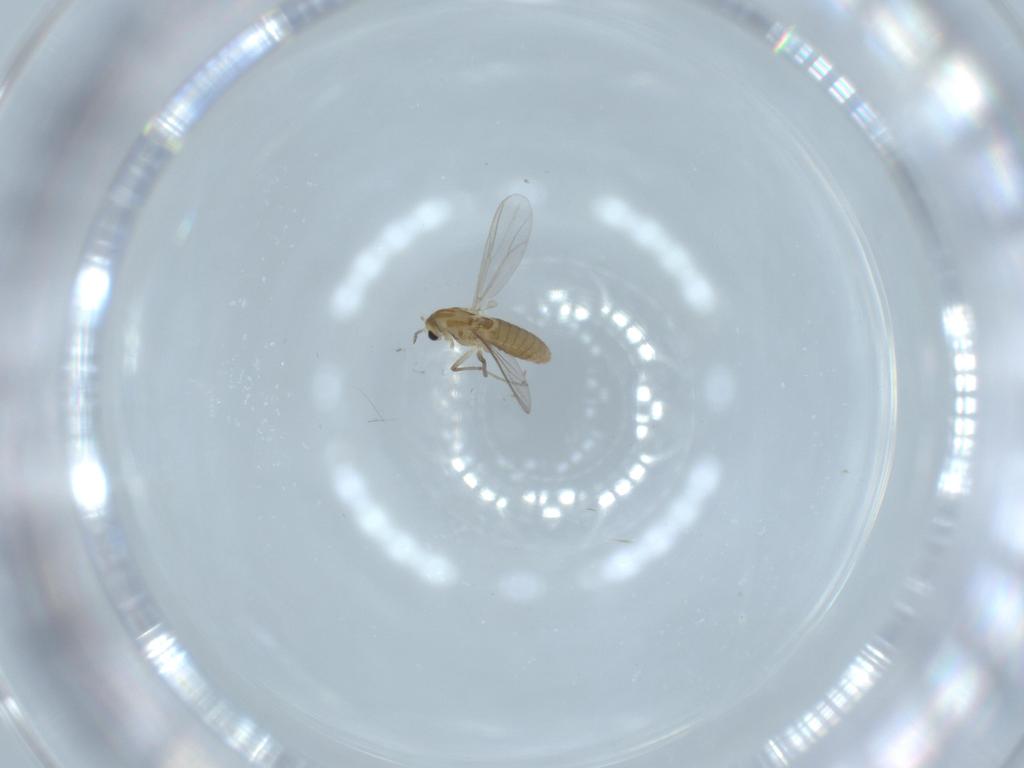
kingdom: Animalia
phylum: Arthropoda
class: Insecta
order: Diptera
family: Chironomidae
